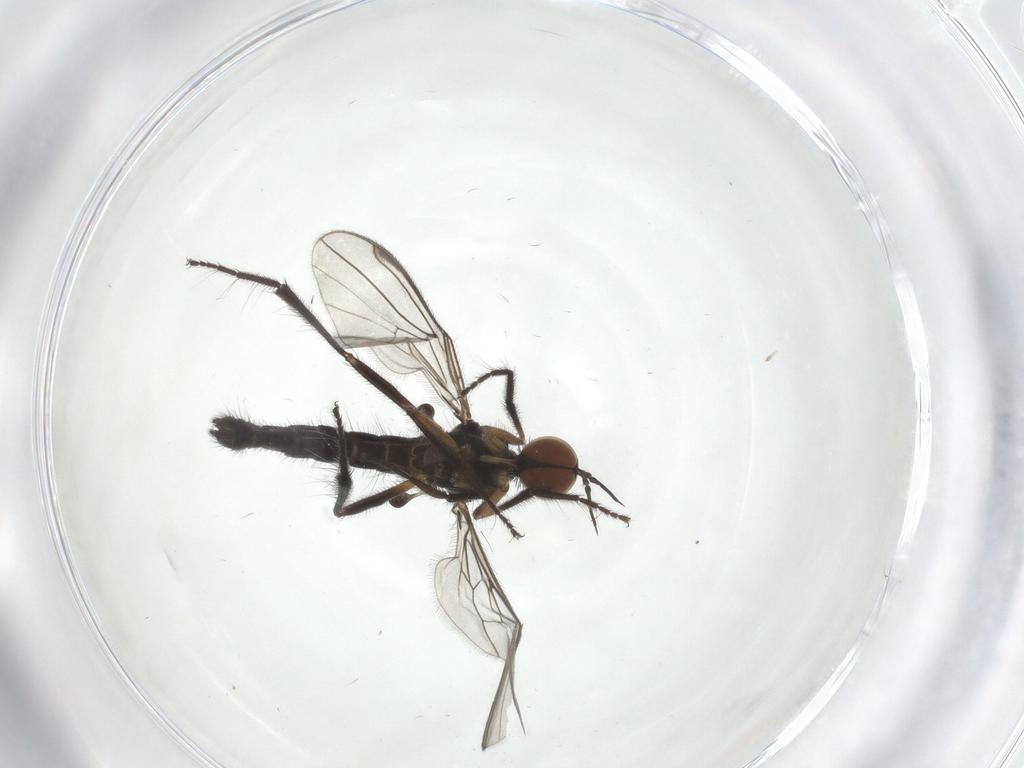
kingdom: Animalia
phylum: Arthropoda
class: Insecta
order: Diptera
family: Empididae
